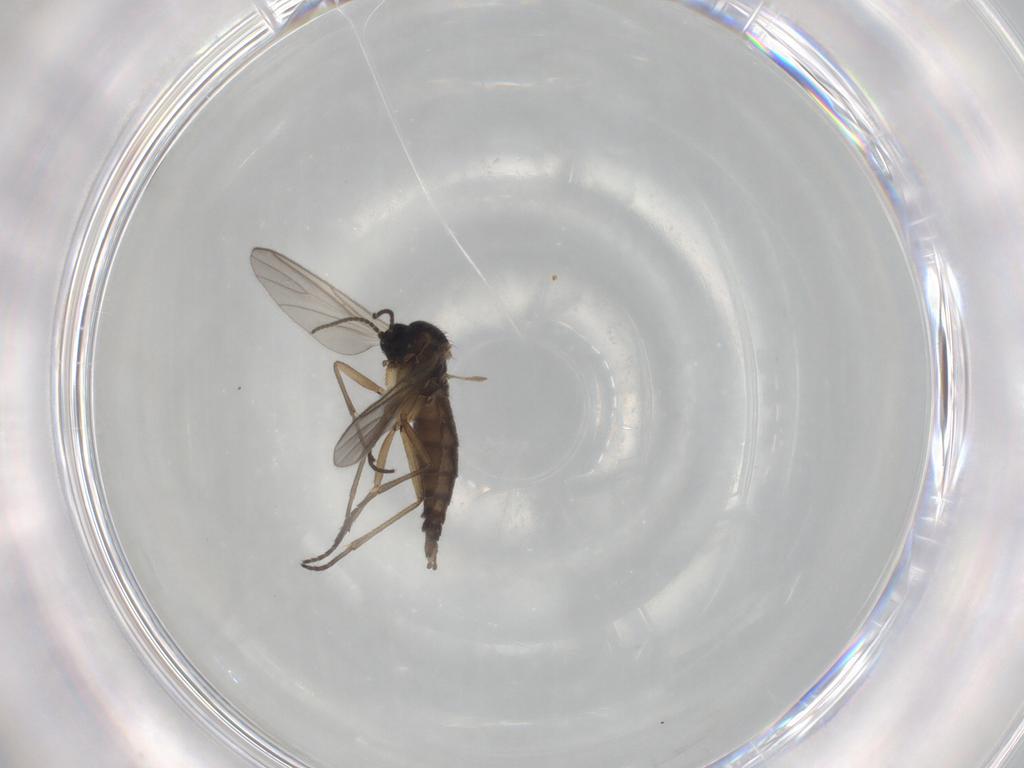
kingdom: Animalia
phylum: Arthropoda
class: Insecta
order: Diptera
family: Sciaridae
